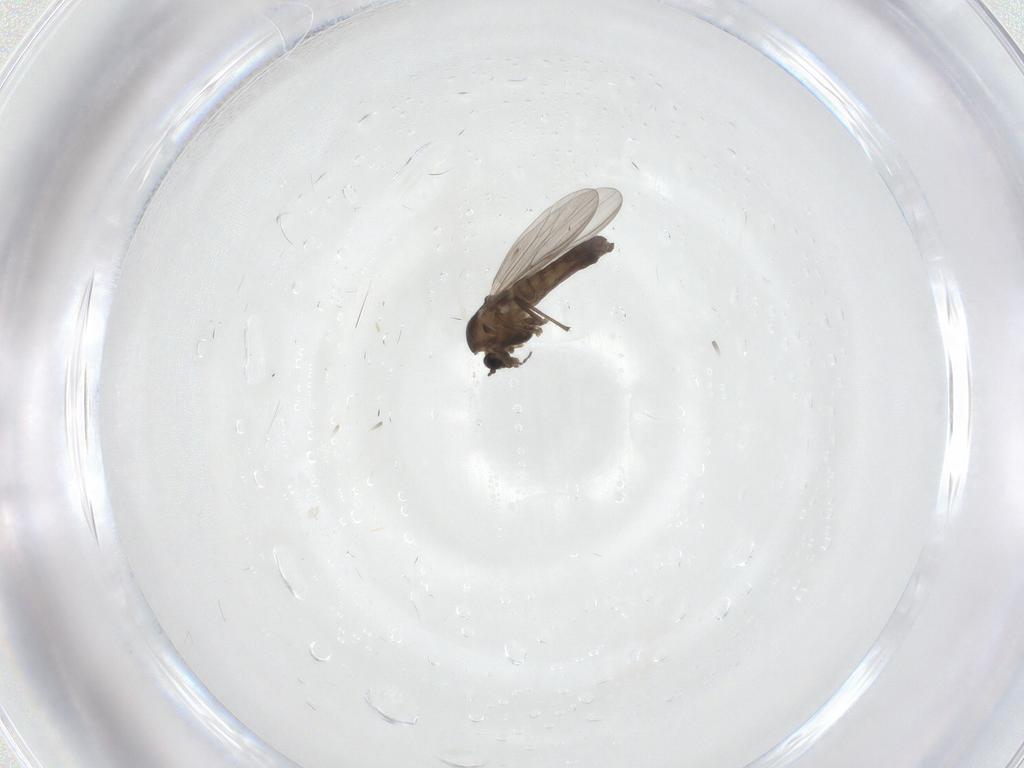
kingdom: Animalia
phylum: Arthropoda
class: Insecta
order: Diptera
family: Chironomidae
